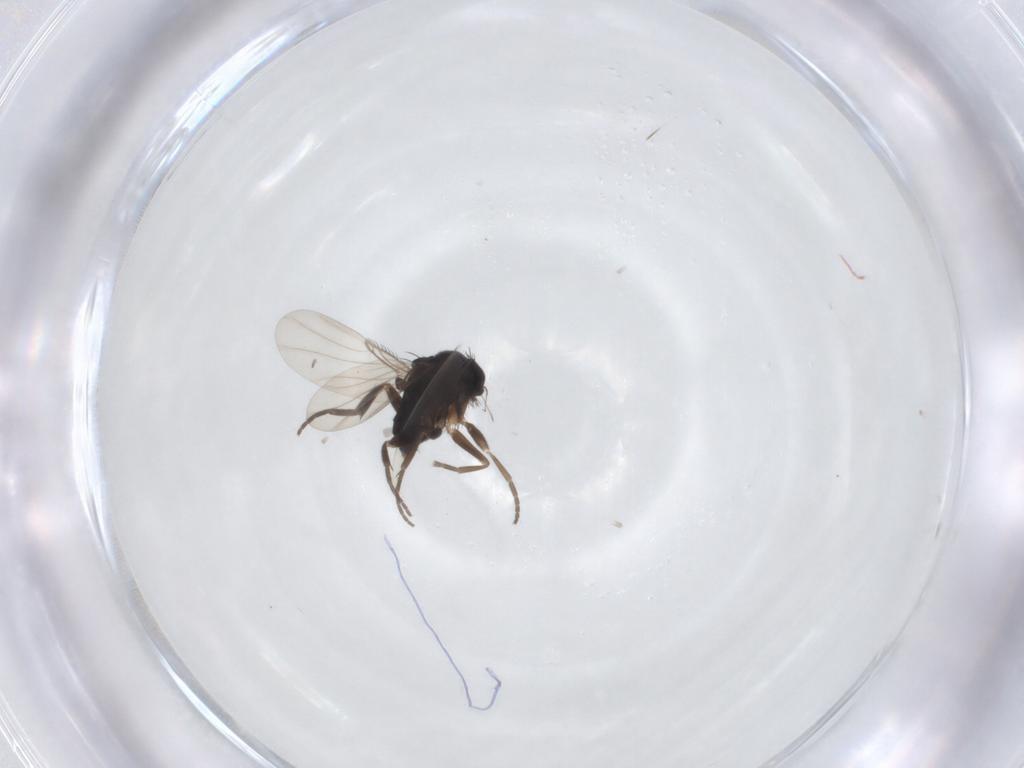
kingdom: Animalia
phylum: Arthropoda
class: Insecta
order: Diptera
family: Phoridae
